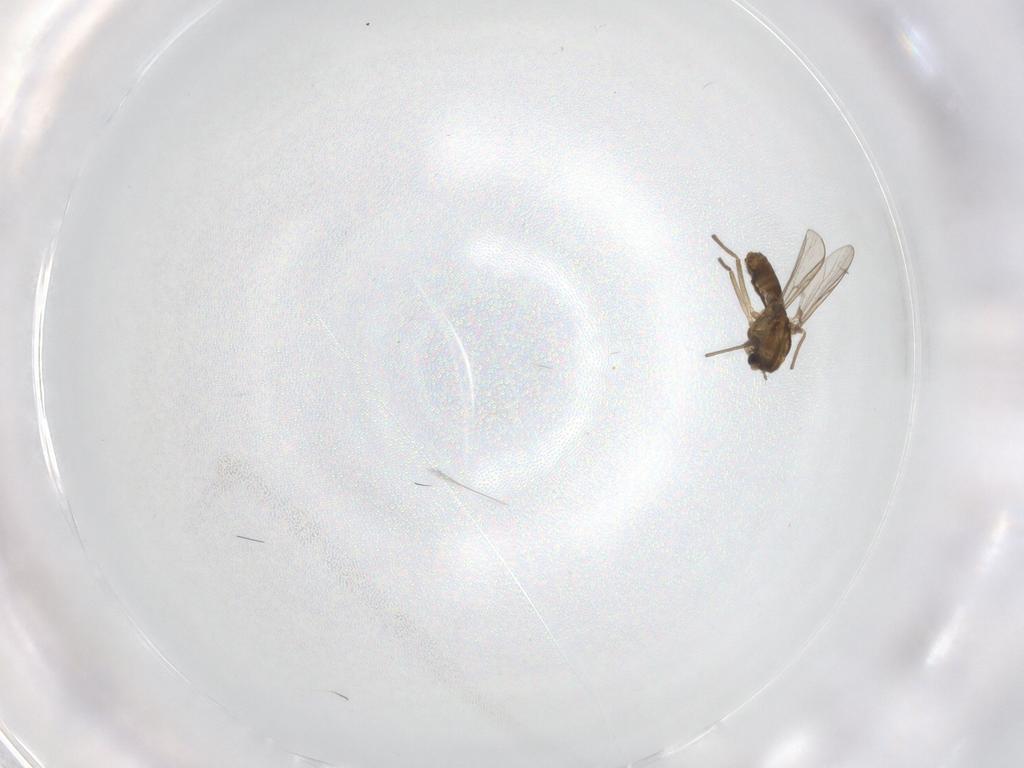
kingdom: Animalia
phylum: Arthropoda
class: Insecta
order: Diptera
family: Chironomidae
